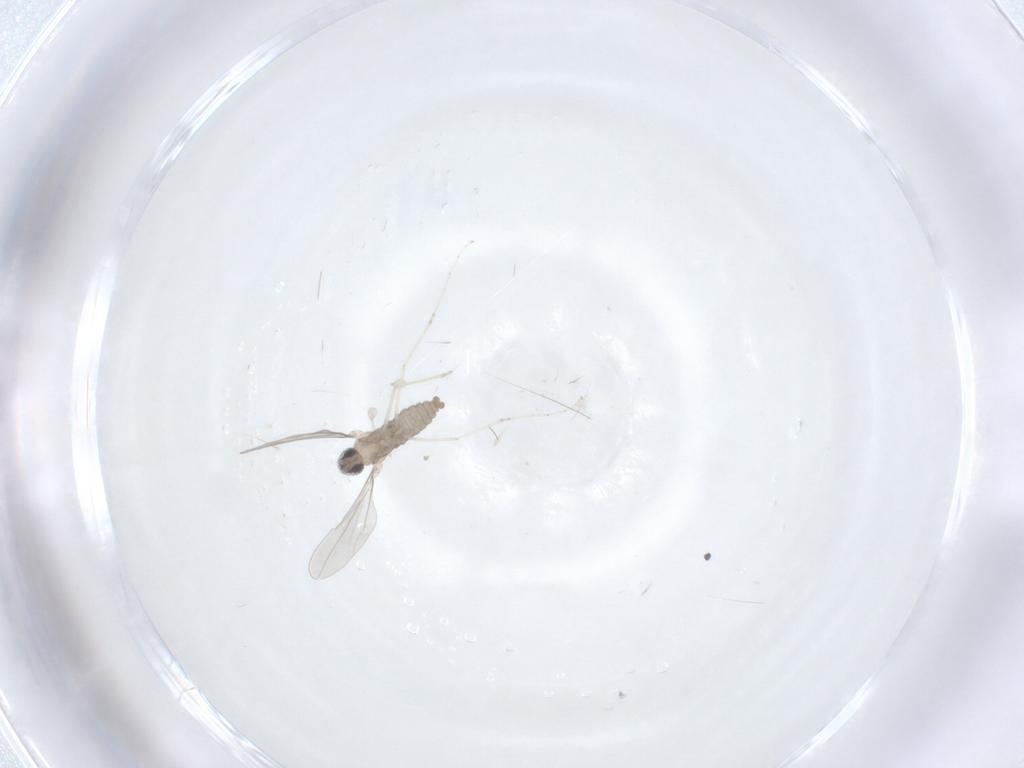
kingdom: Animalia
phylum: Arthropoda
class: Insecta
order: Diptera
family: Cecidomyiidae
